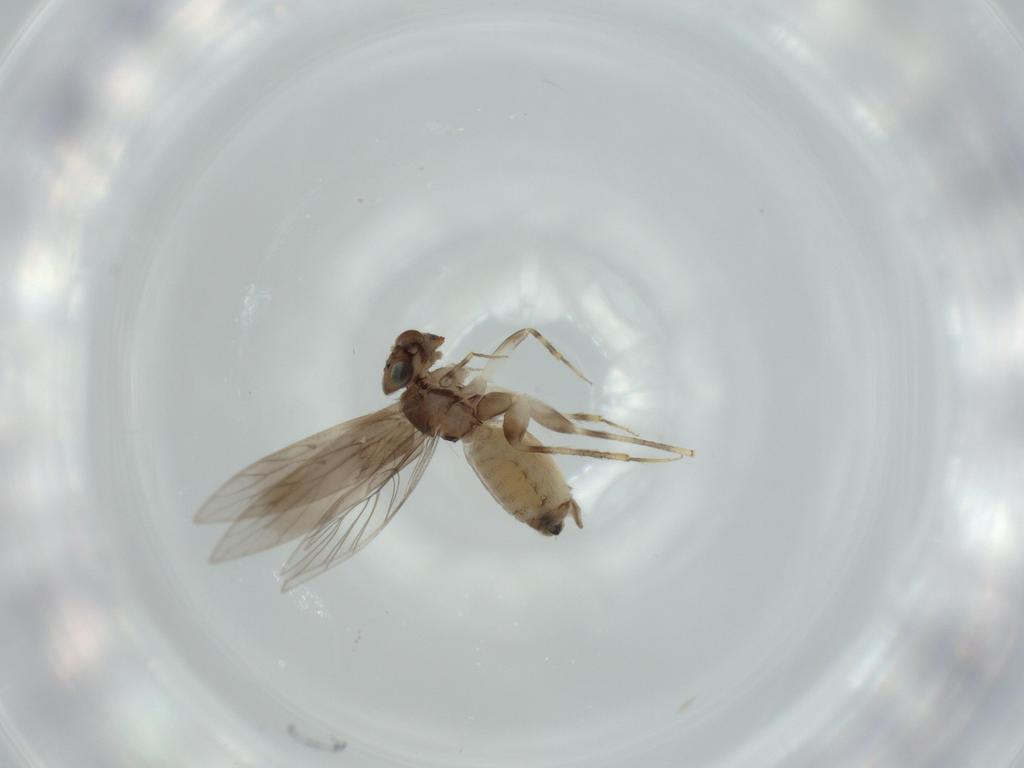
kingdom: Animalia
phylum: Arthropoda
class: Insecta
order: Psocodea
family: Lepidopsocidae
